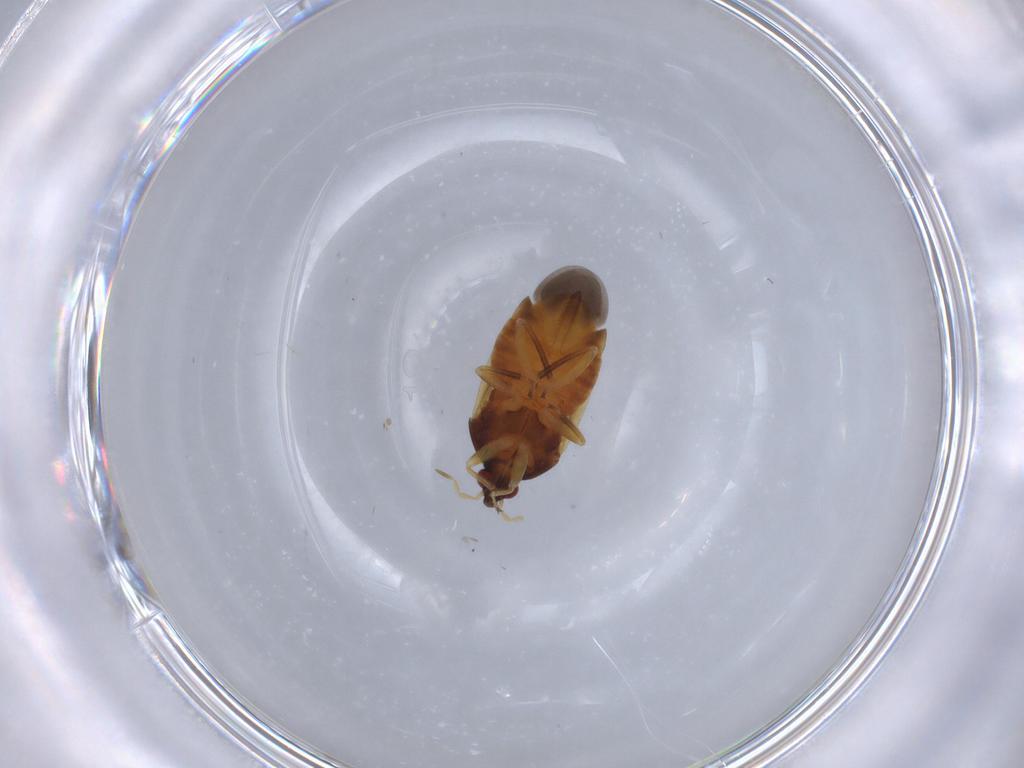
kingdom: Animalia
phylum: Arthropoda
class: Insecta
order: Hemiptera
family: Anthocoridae
